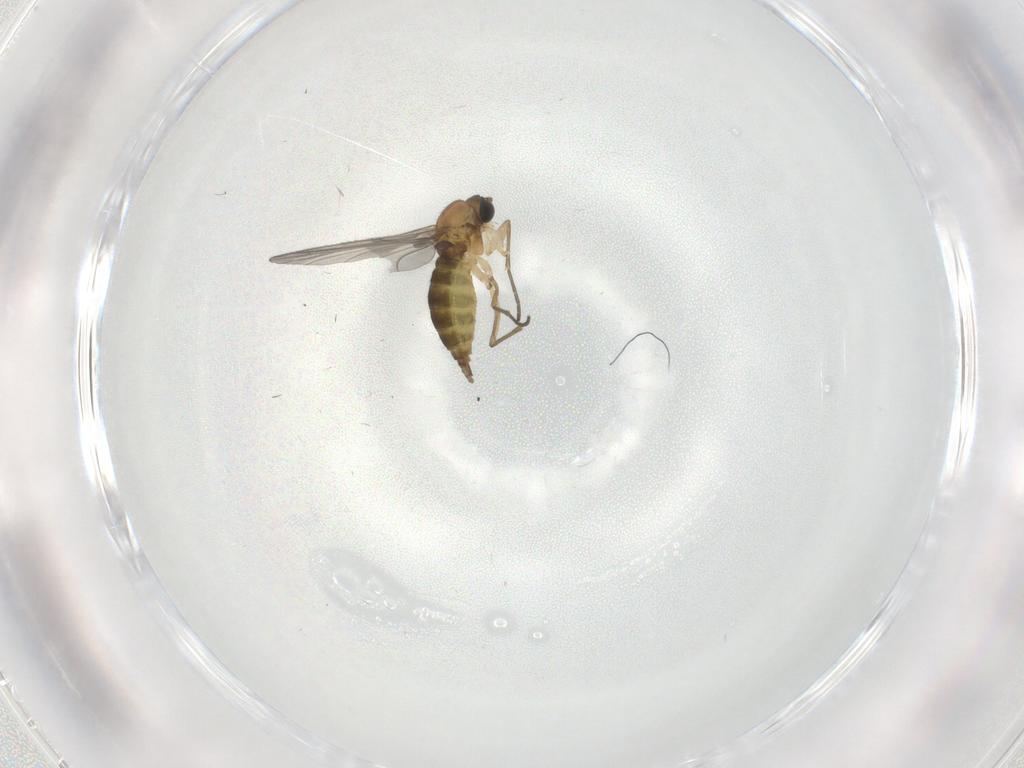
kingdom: Animalia
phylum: Arthropoda
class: Insecta
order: Diptera
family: Sciaridae
